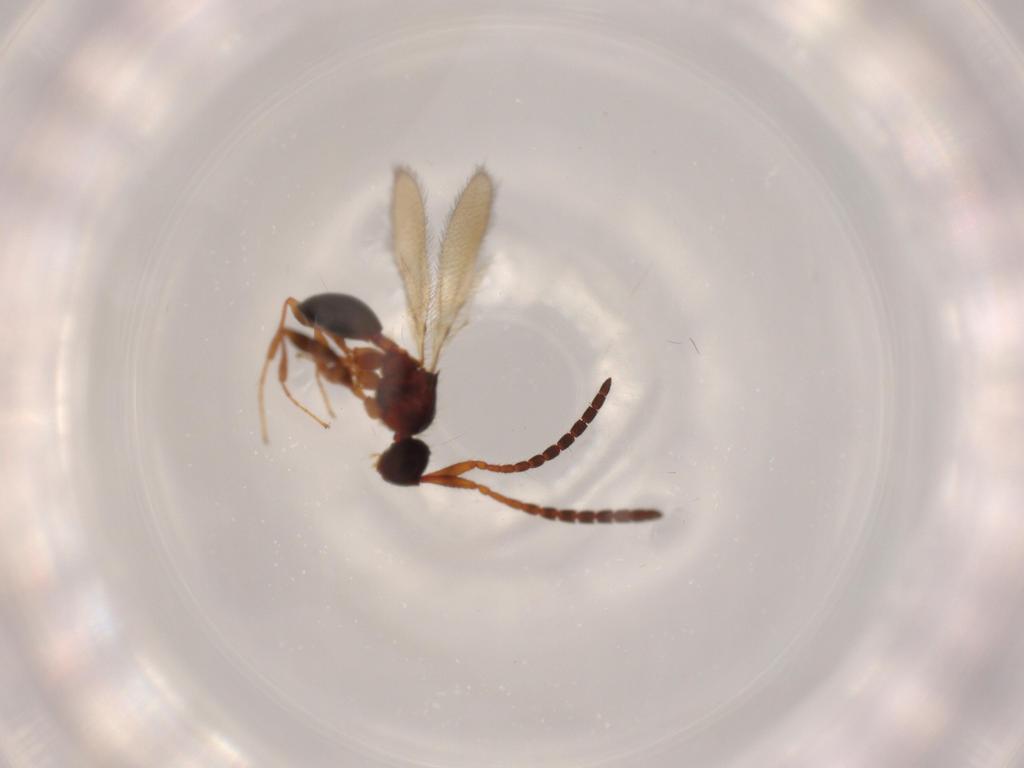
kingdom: Animalia
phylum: Arthropoda
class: Insecta
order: Hymenoptera
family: Diapriidae
